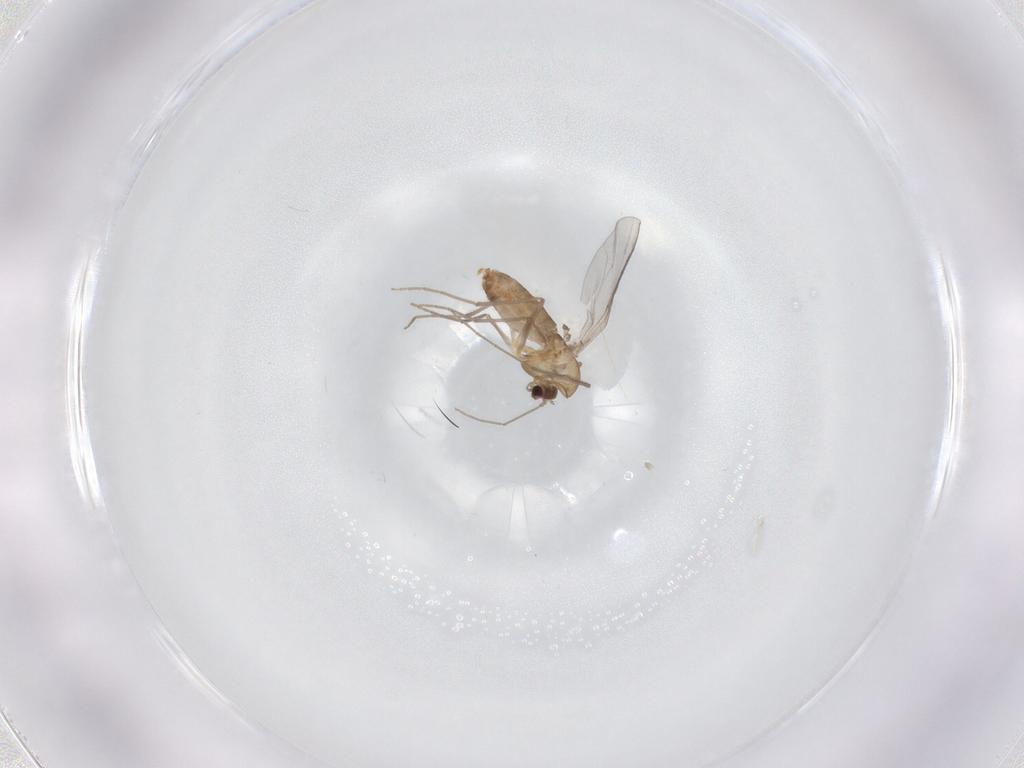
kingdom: Animalia
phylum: Arthropoda
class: Insecta
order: Diptera
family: Chironomidae
